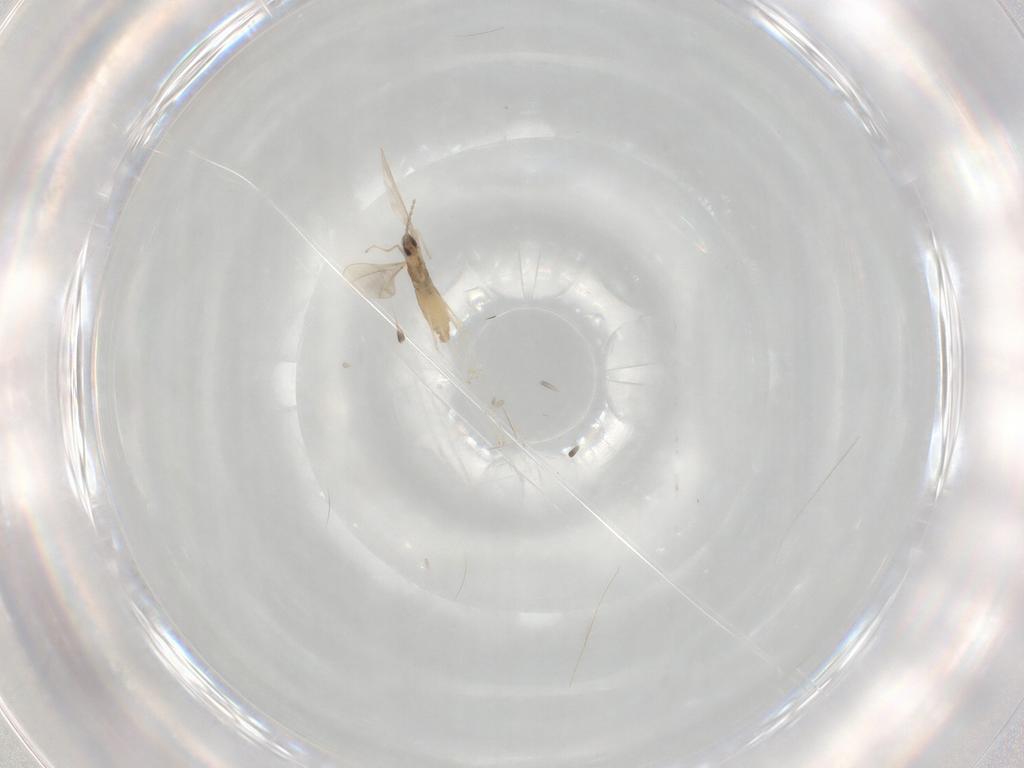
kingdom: Animalia
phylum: Arthropoda
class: Insecta
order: Diptera
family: Cecidomyiidae
